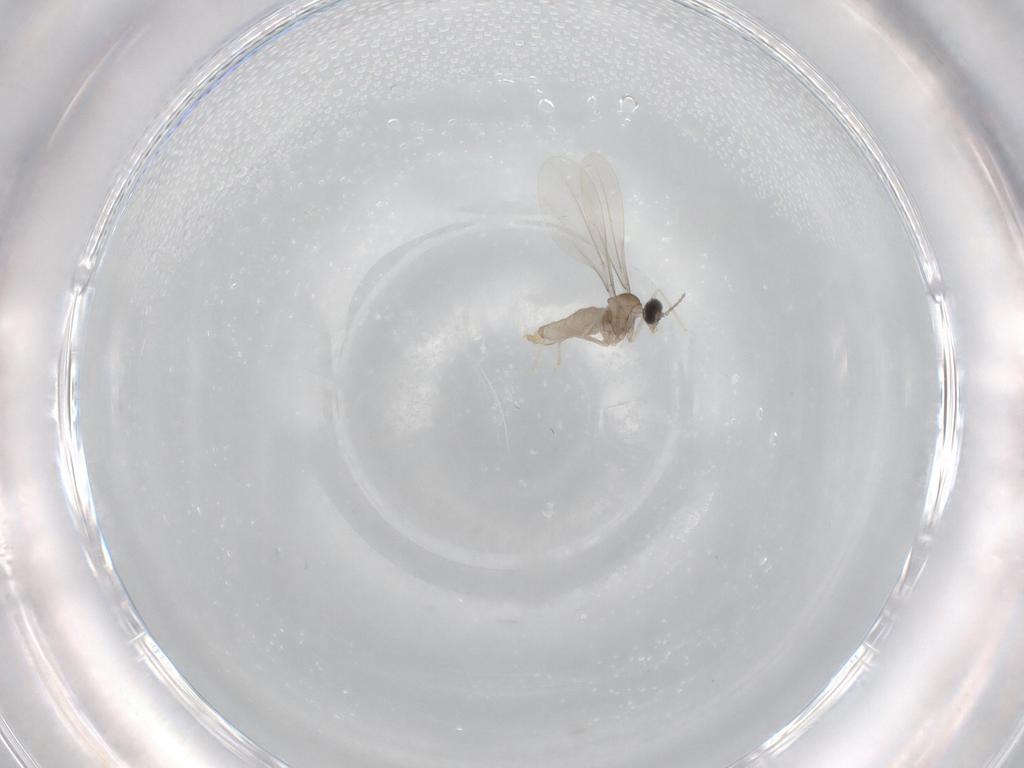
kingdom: Animalia
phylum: Arthropoda
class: Insecta
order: Diptera
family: Cecidomyiidae
